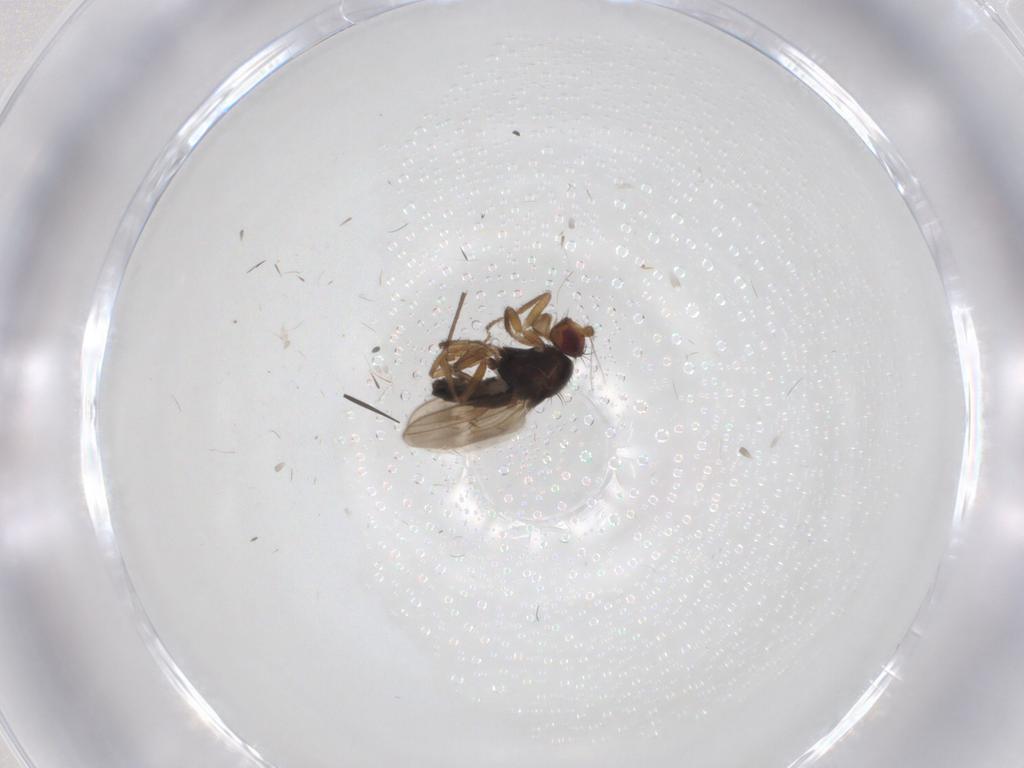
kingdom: Animalia
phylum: Arthropoda
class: Insecta
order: Diptera
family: Sphaeroceridae
